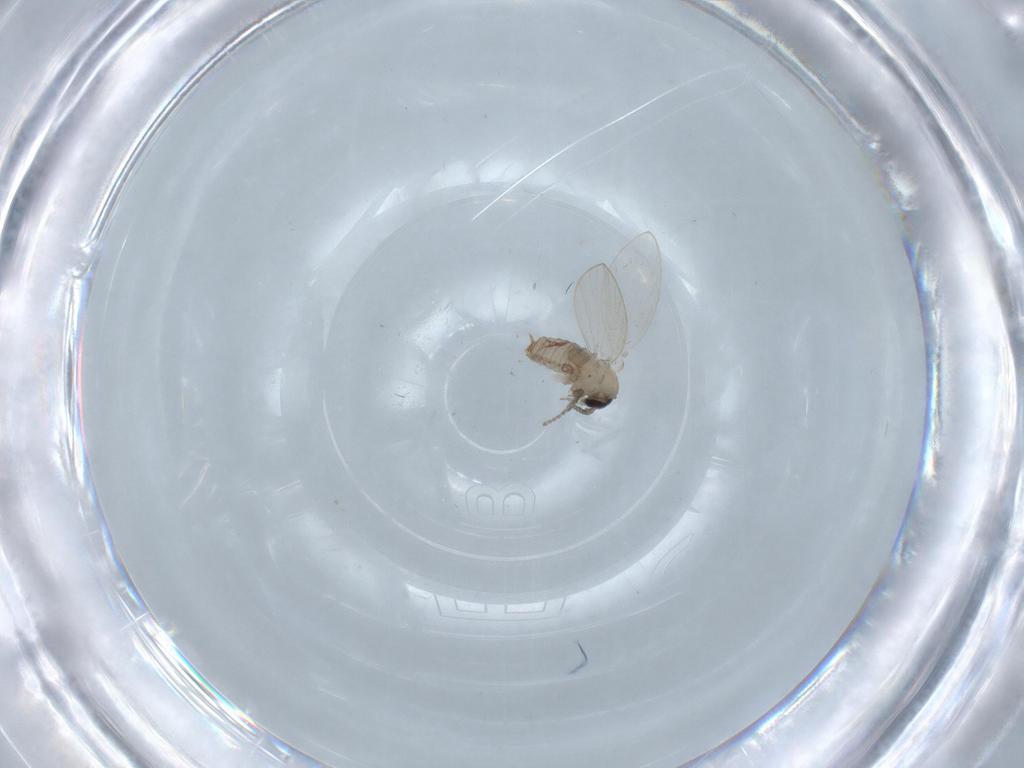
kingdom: Animalia
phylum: Arthropoda
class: Insecta
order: Diptera
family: Psychodidae
